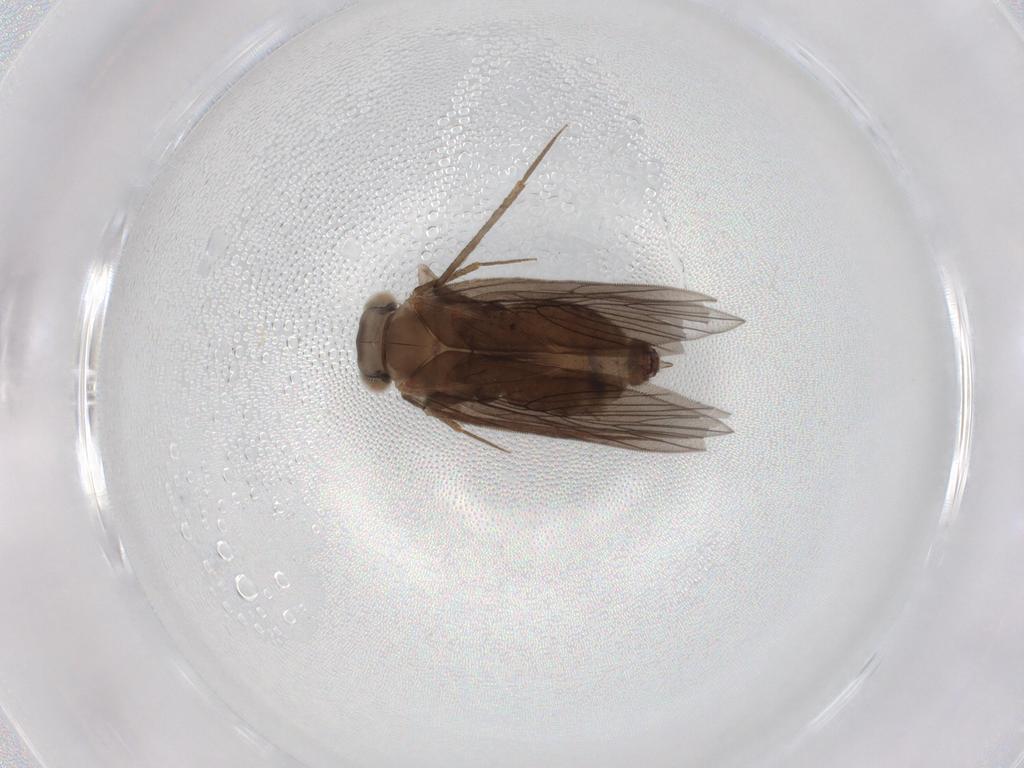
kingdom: Animalia
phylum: Arthropoda
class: Insecta
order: Psocodea
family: Lepidopsocidae
